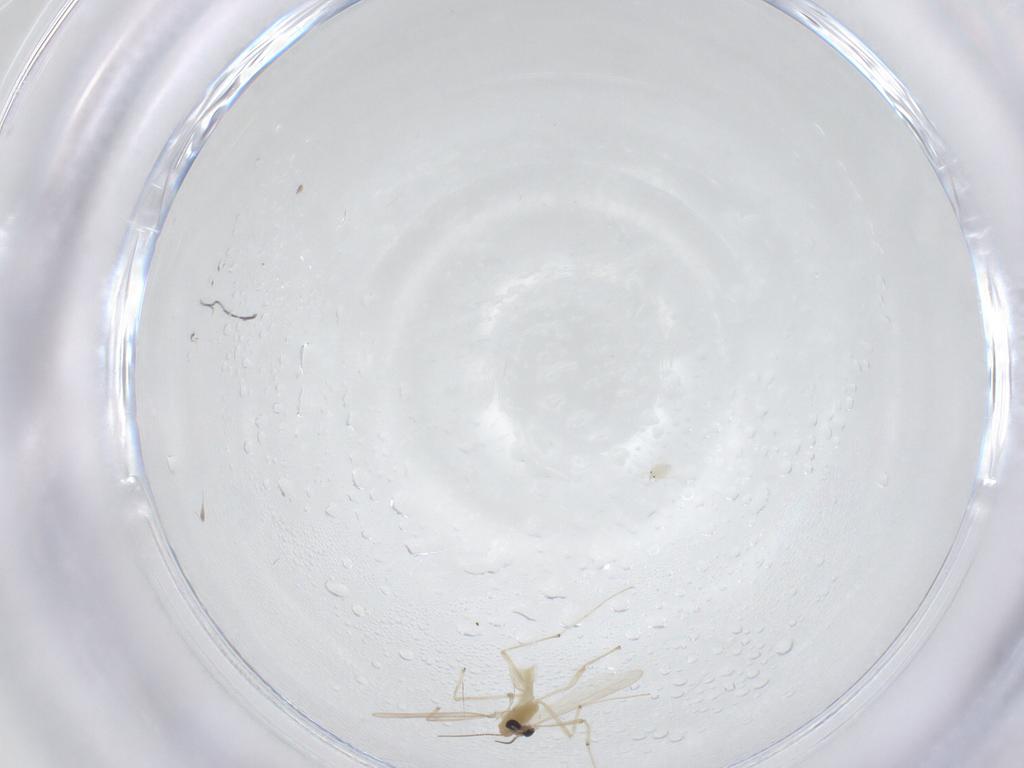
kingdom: Animalia
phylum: Arthropoda
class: Insecta
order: Diptera
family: Chironomidae
